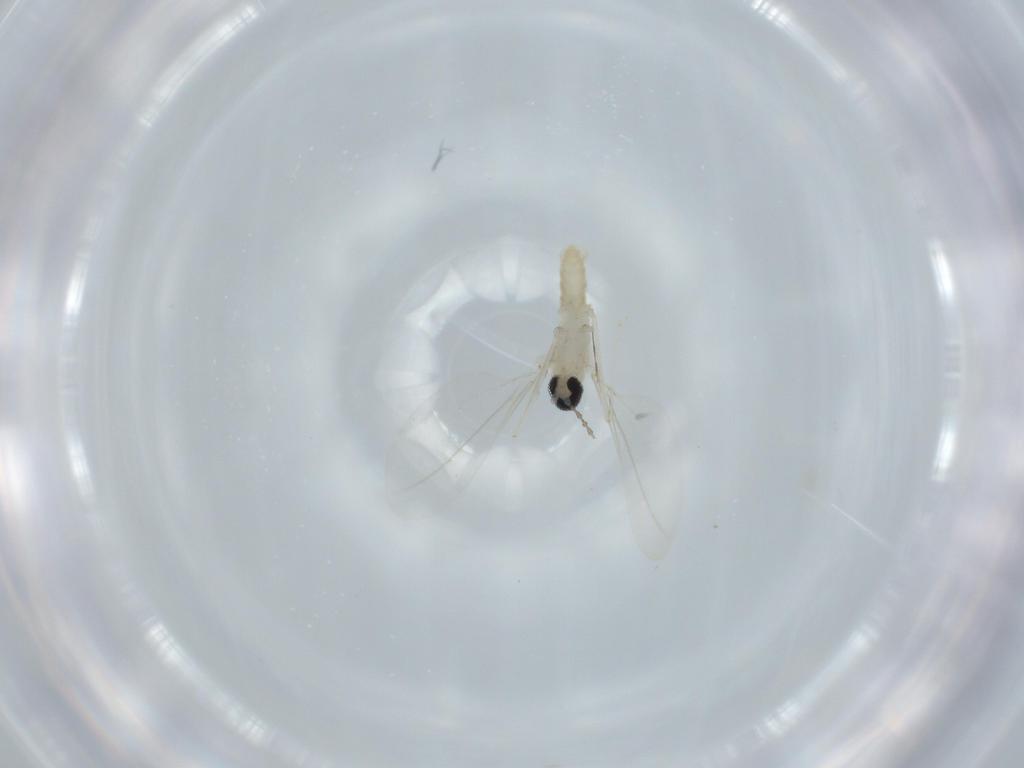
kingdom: Animalia
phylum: Arthropoda
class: Insecta
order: Diptera
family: Cecidomyiidae
